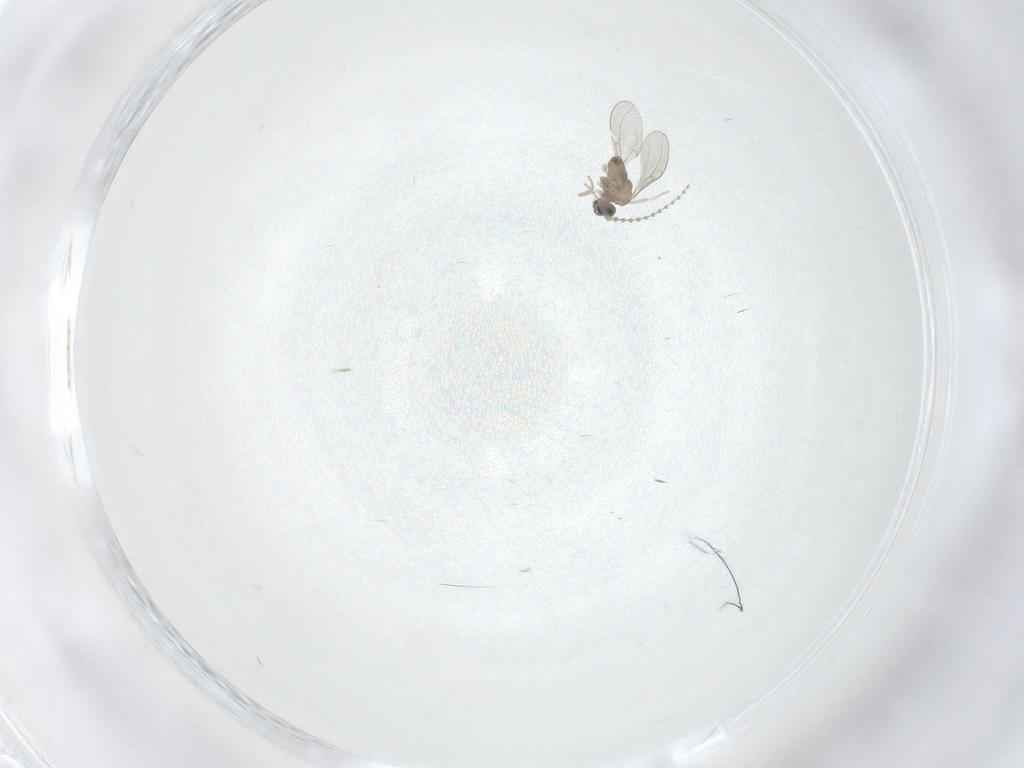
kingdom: Animalia
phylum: Arthropoda
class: Insecta
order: Diptera
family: Cecidomyiidae
